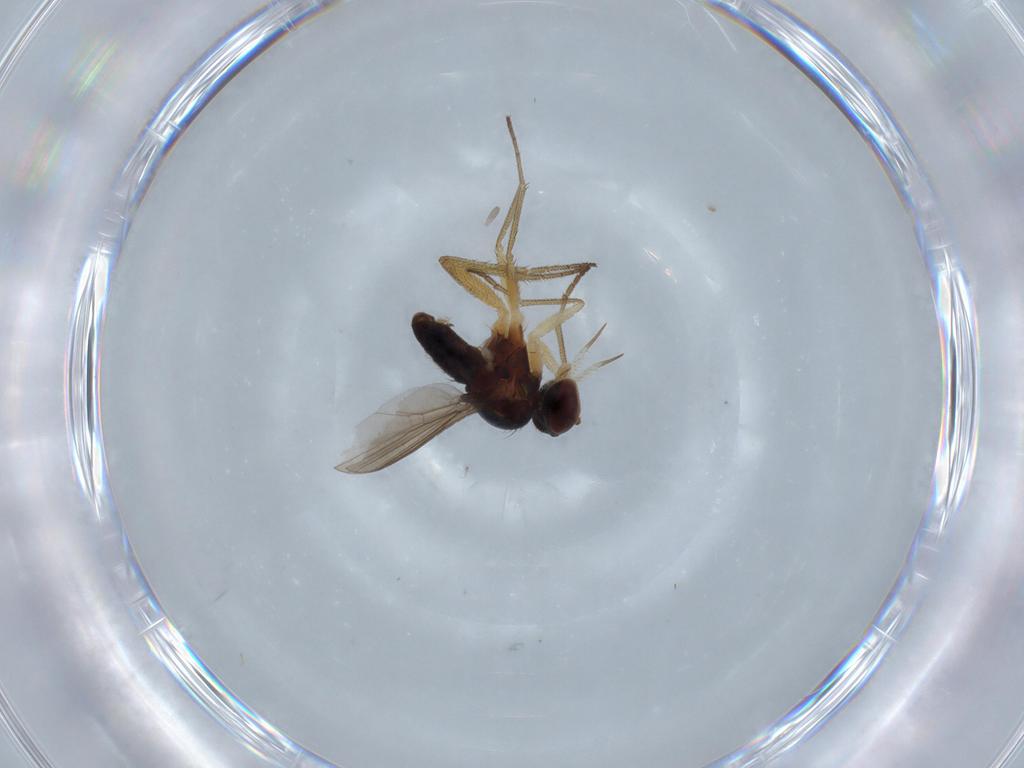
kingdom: Animalia
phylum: Arthropoda
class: Insecta
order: Diptera
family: Dolichopodidae
